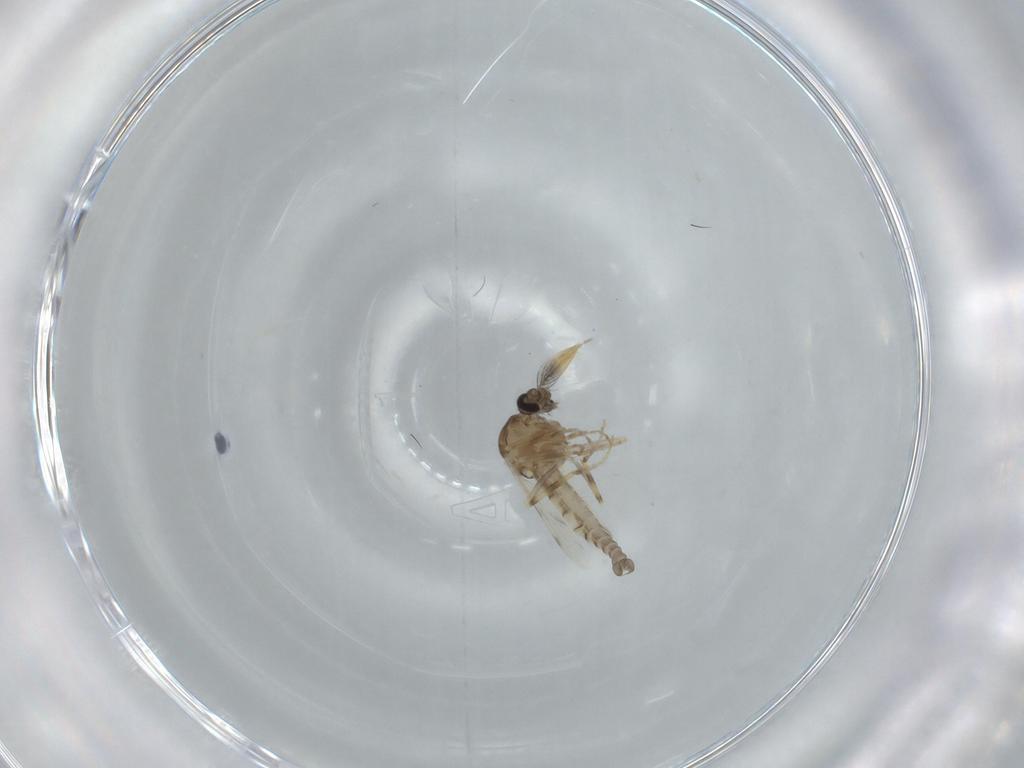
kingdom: Animalia
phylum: Arthropoda
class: Insecta
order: Diptera
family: Ceratopogonidae
